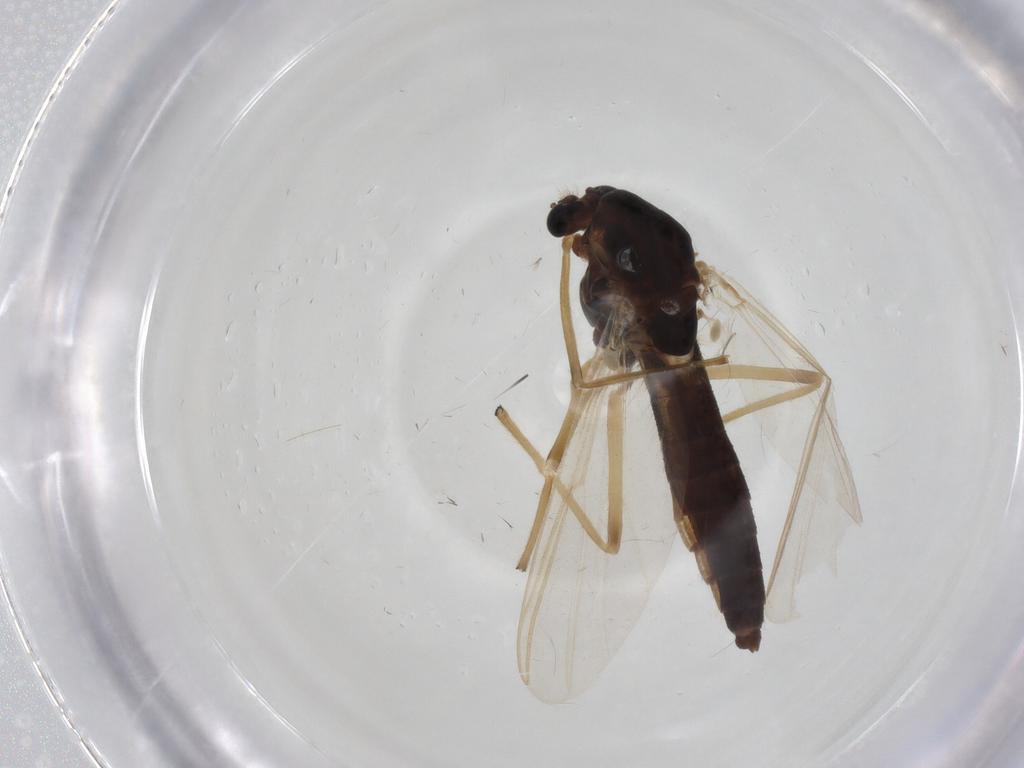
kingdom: Animalia
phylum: Arthropoda
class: Insecta
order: Diptera
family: Chironomidae
